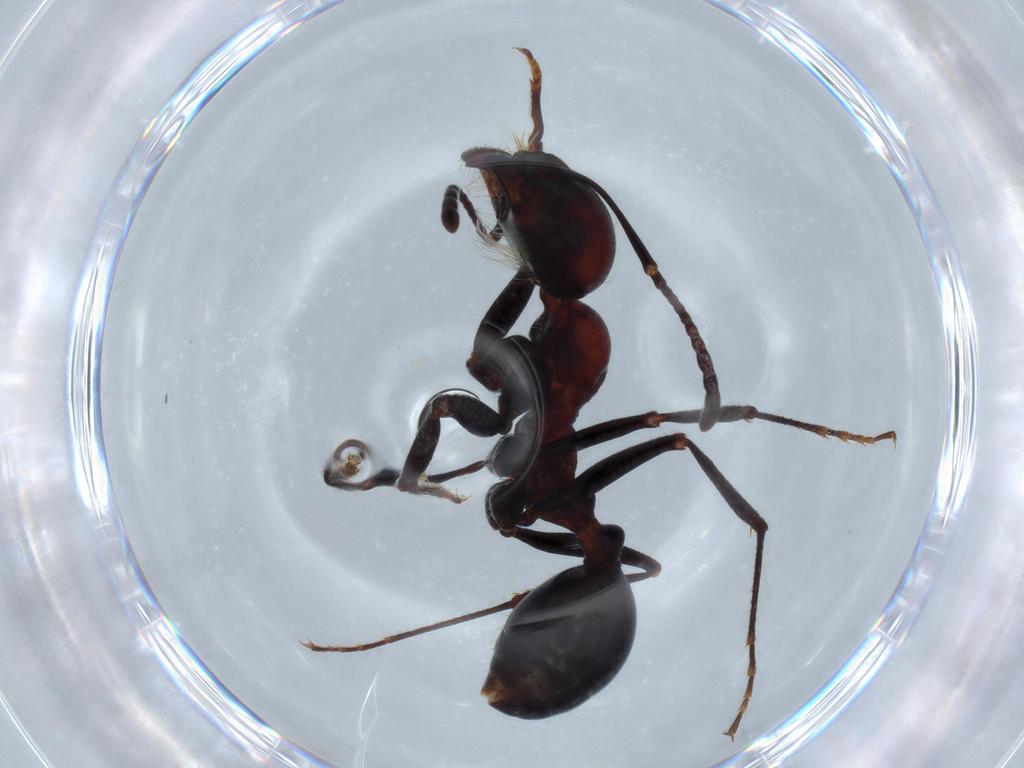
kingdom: Animalia
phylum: Arthropoda
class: Insecta
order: Hymenoptera
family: Formicidae
